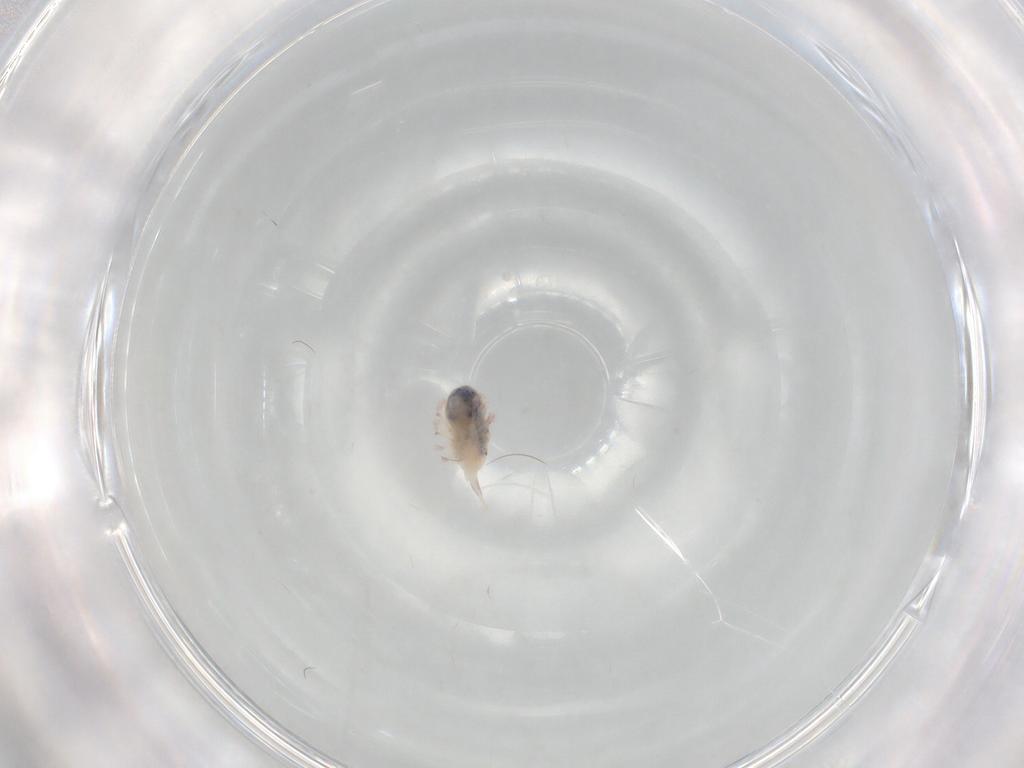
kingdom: Animalia
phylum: Arthropoda
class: Arachnida
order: Trombidiformes
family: Bdellidae
